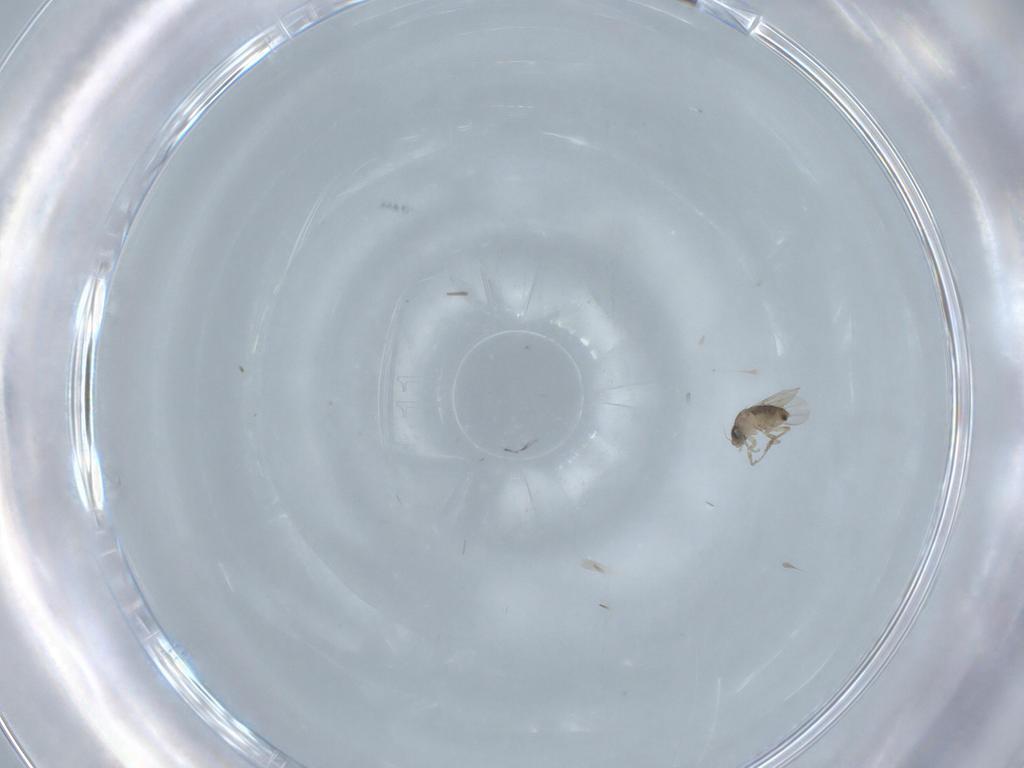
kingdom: Animalia
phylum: Arthropoda
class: Insecta
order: Diptera
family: Phoridae
